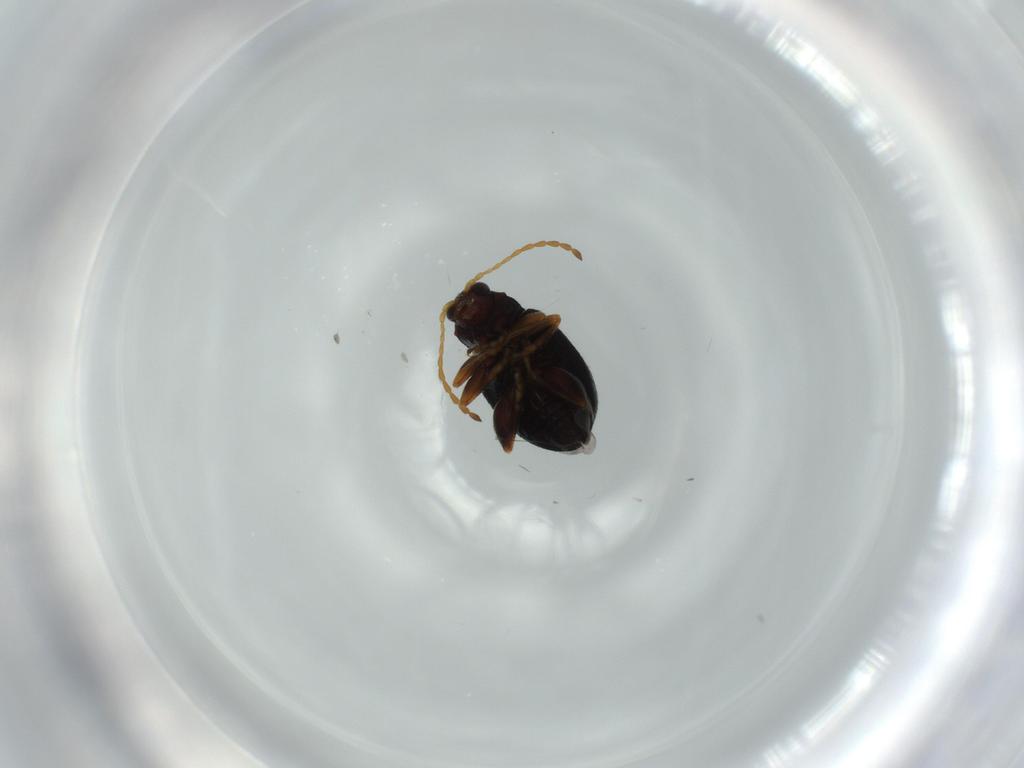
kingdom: Animalia
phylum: Arthropoda
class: Insecta
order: Coleoptera
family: Chrysomelidae
